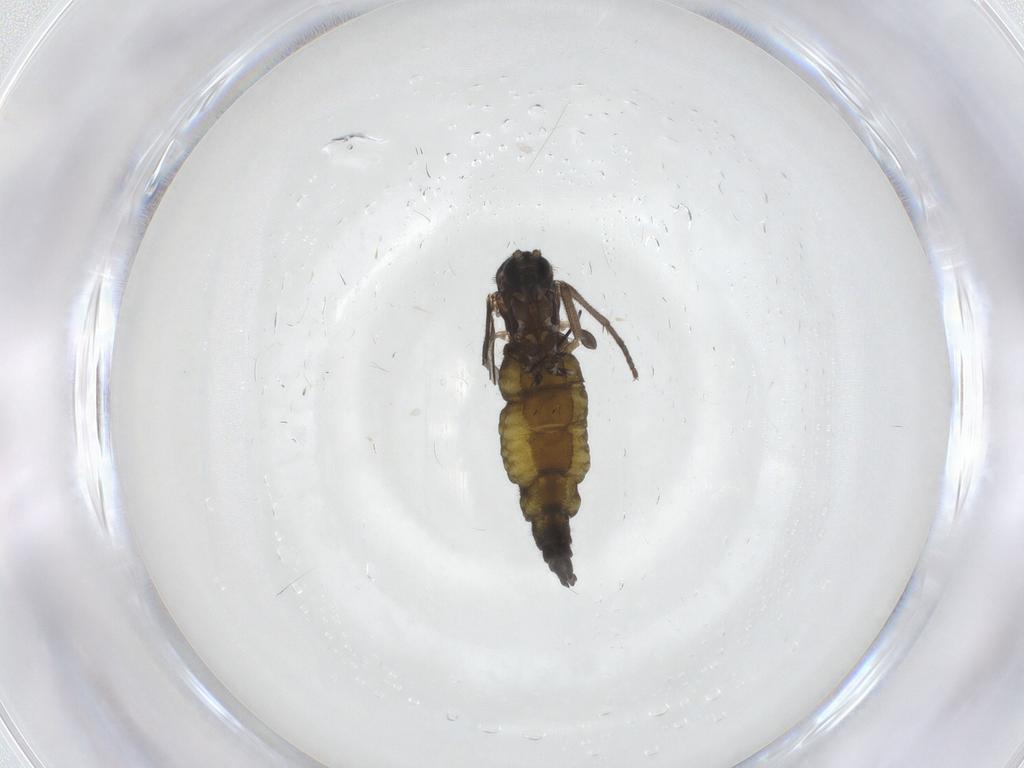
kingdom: Animalia
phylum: Arthropoda
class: Insecta
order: Diptera
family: Sciaridae
